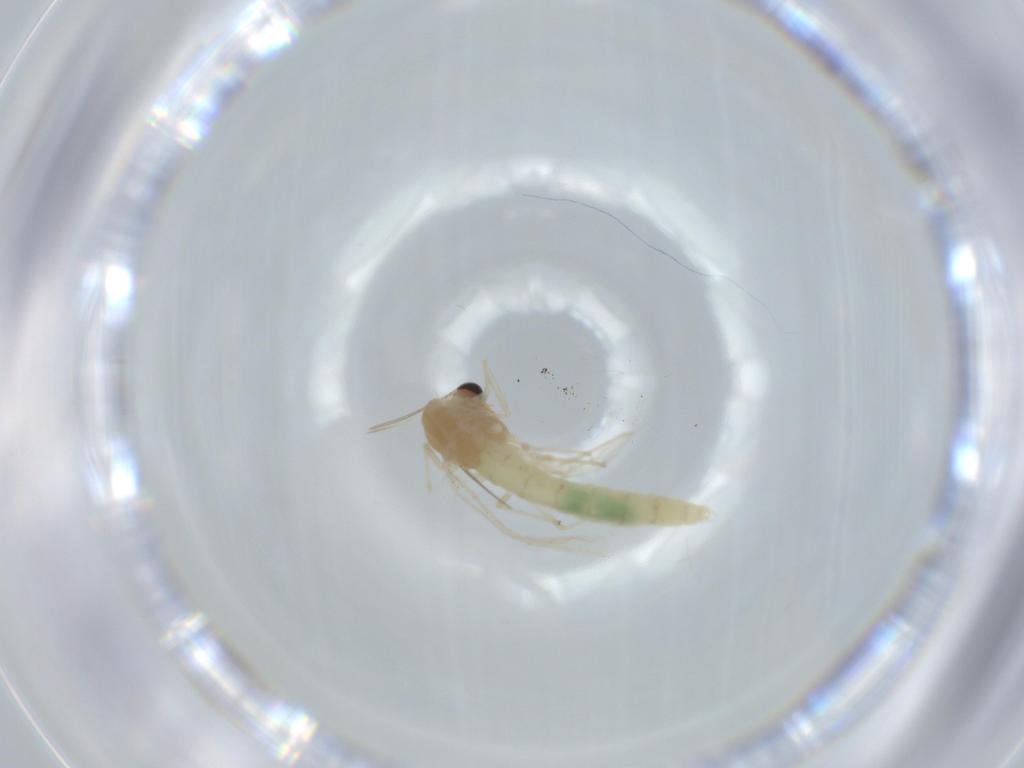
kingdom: Animalia
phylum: Arthropoda
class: Insecta
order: Diptera
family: Chironomidae
